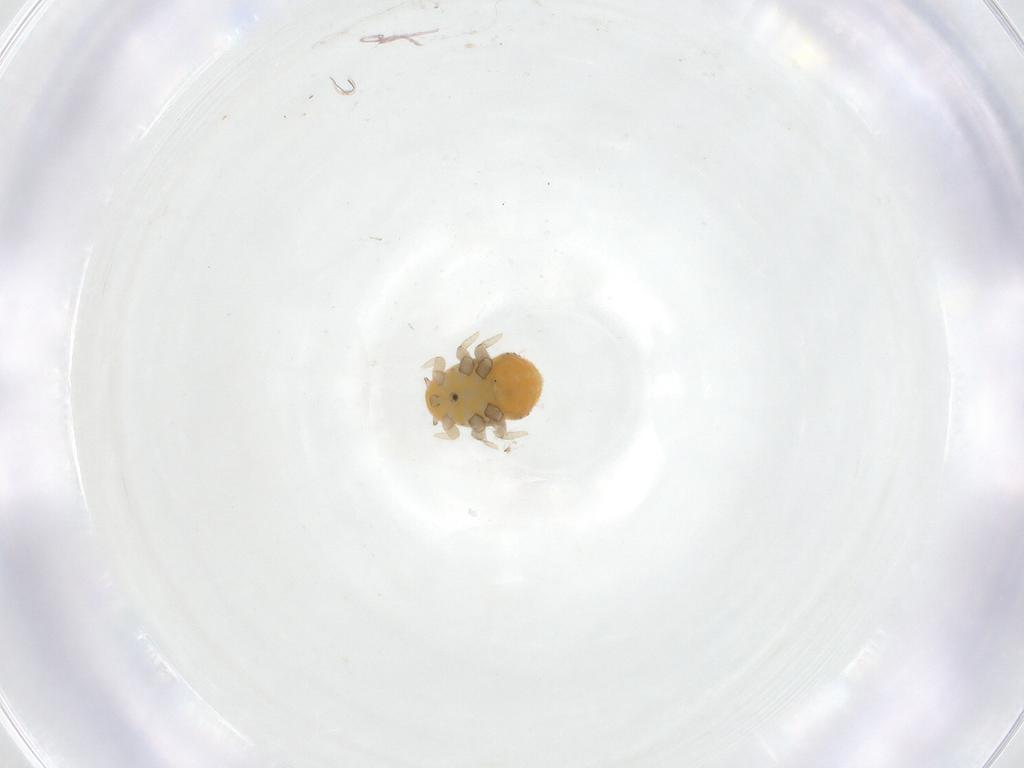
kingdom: Animalia
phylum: Arthropoda
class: Insecta
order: Hemiptera
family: Triozidae
